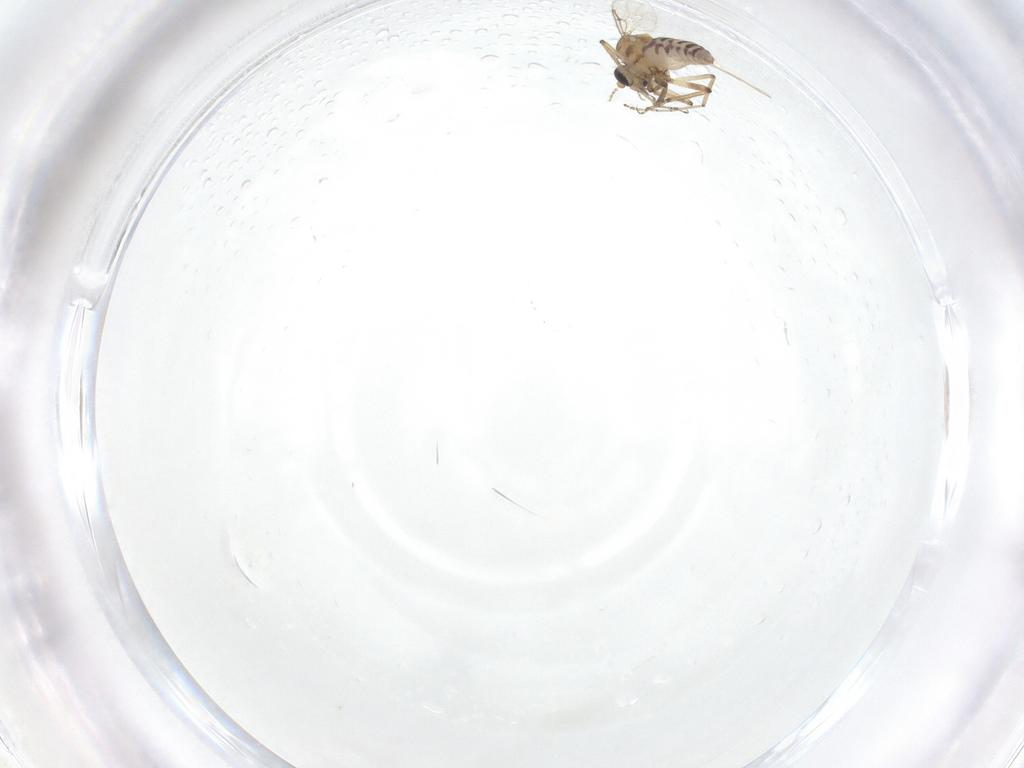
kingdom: Animalia
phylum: Arthropoda
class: Insecta
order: Diptera
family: Ceratopogonidae
